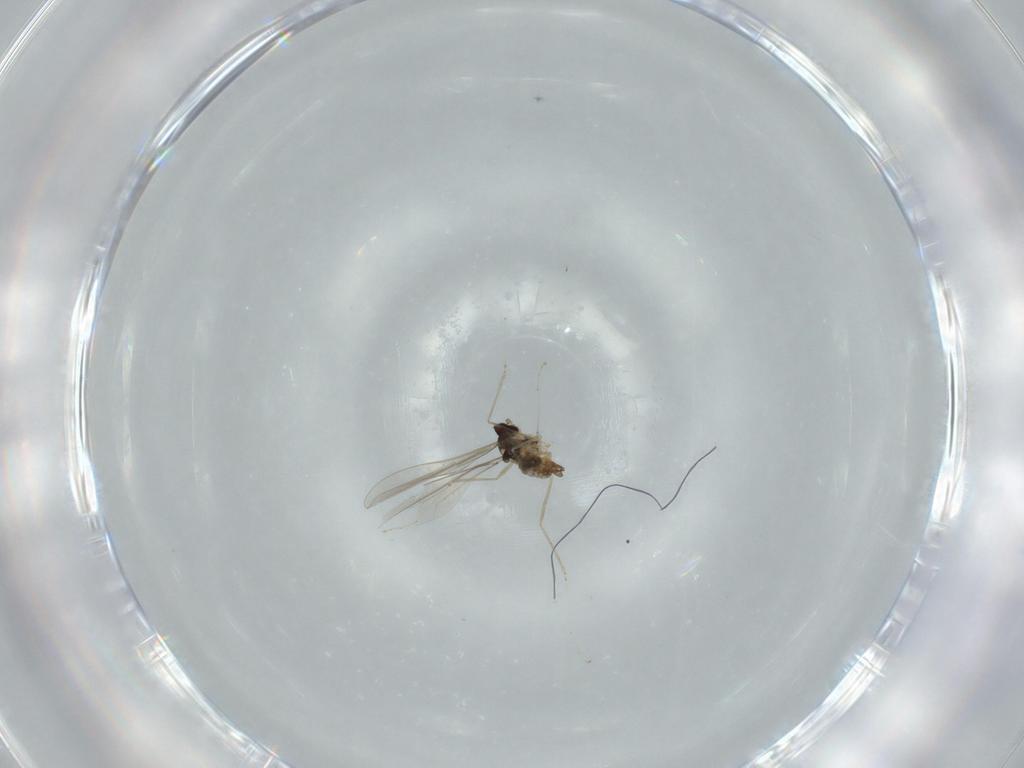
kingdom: Animalia
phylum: Arthropoda
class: Insecta
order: Diptera
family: Cecidomyiidae
